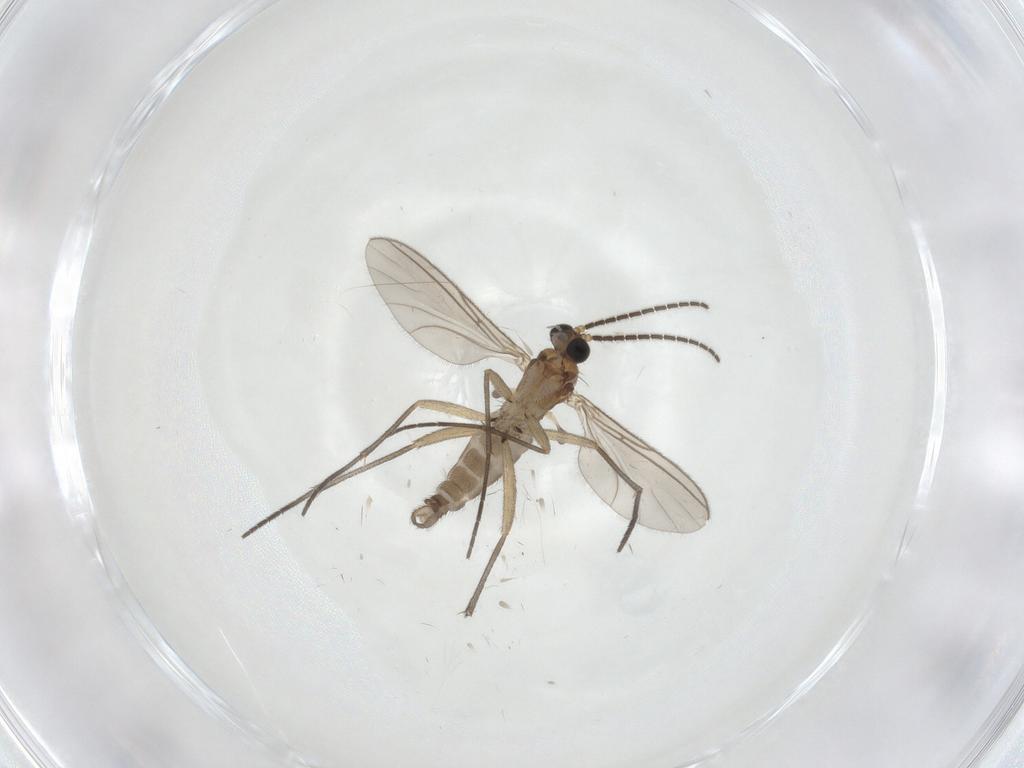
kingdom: Animalia
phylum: Arthropoda
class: Insecta
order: Diptera
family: Sciaridae
